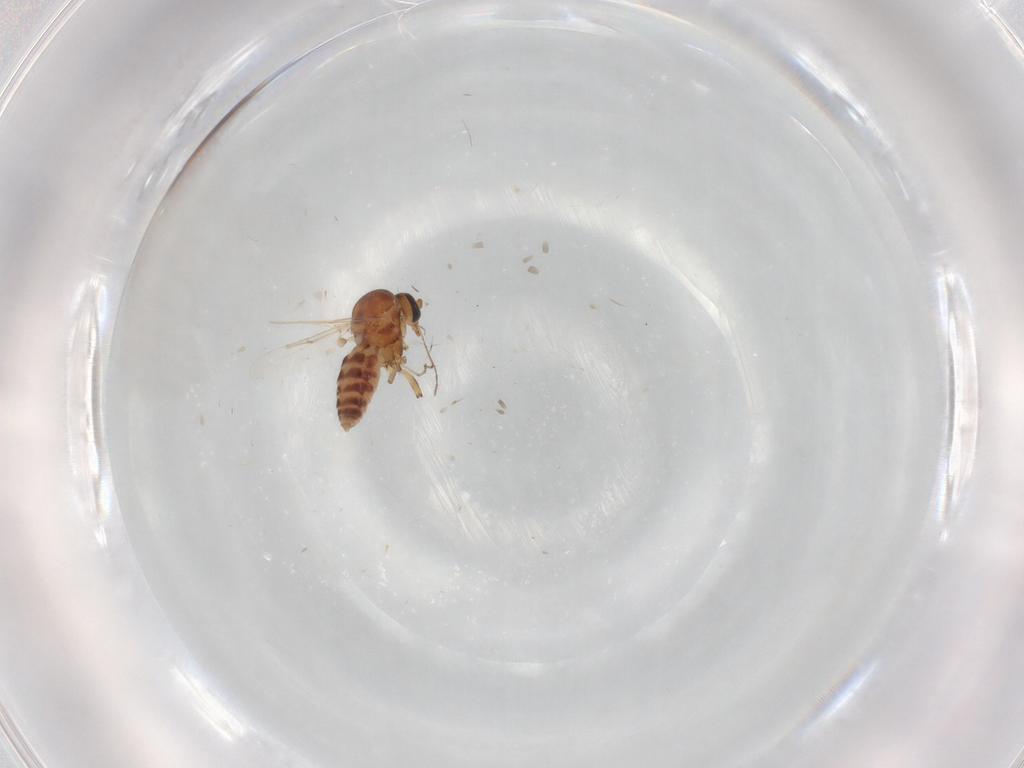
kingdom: Animalia
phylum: Arthropoda
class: Insecta
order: Diptera
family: Ceratopogonidae
